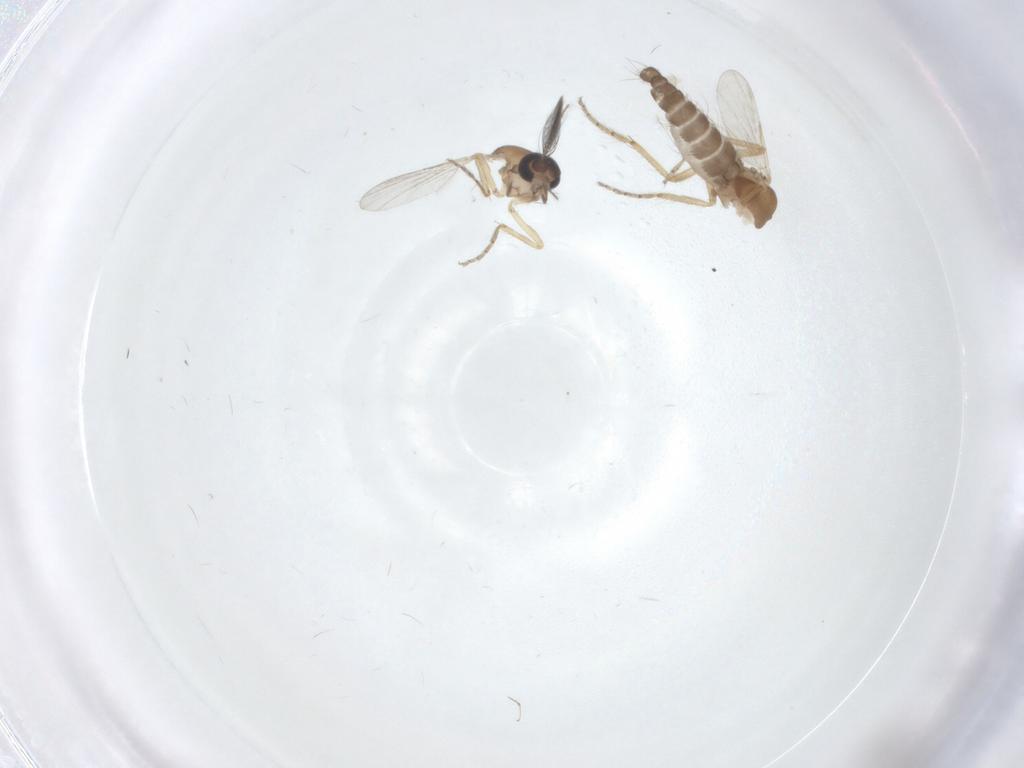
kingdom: Animalia
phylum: Arthropoda
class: Insecta
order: Diptera
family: Ceratopogonidae
